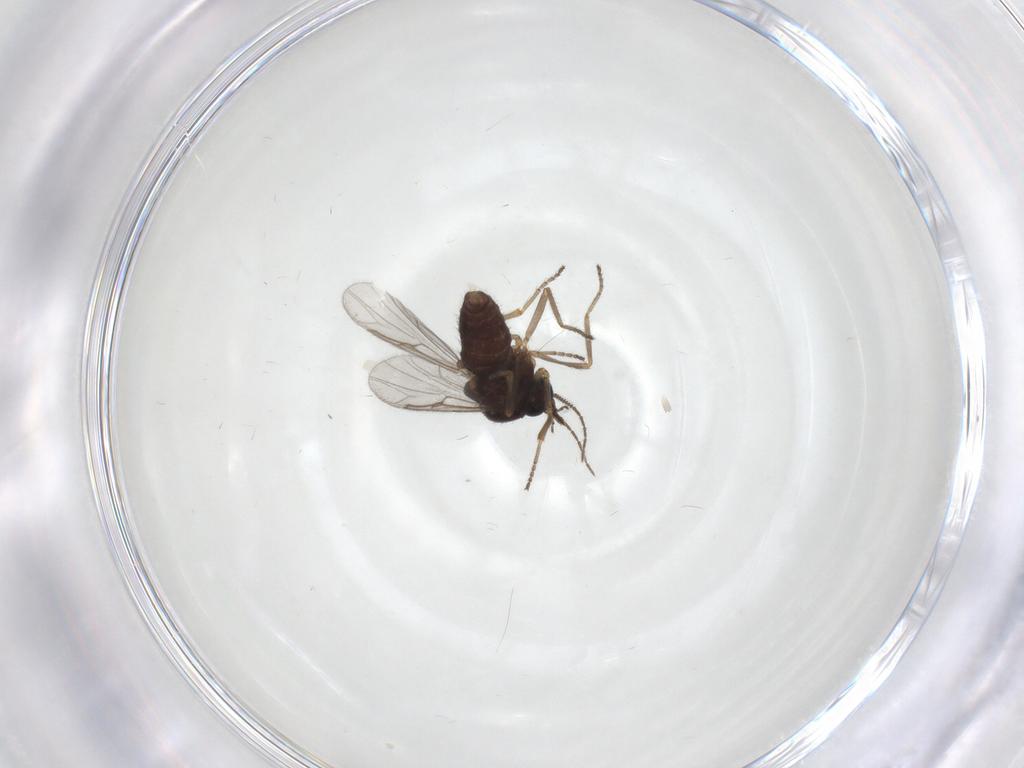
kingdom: Animalia
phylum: Arthropoda
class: Insecta
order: Diptera
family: Ceratopogonidae
